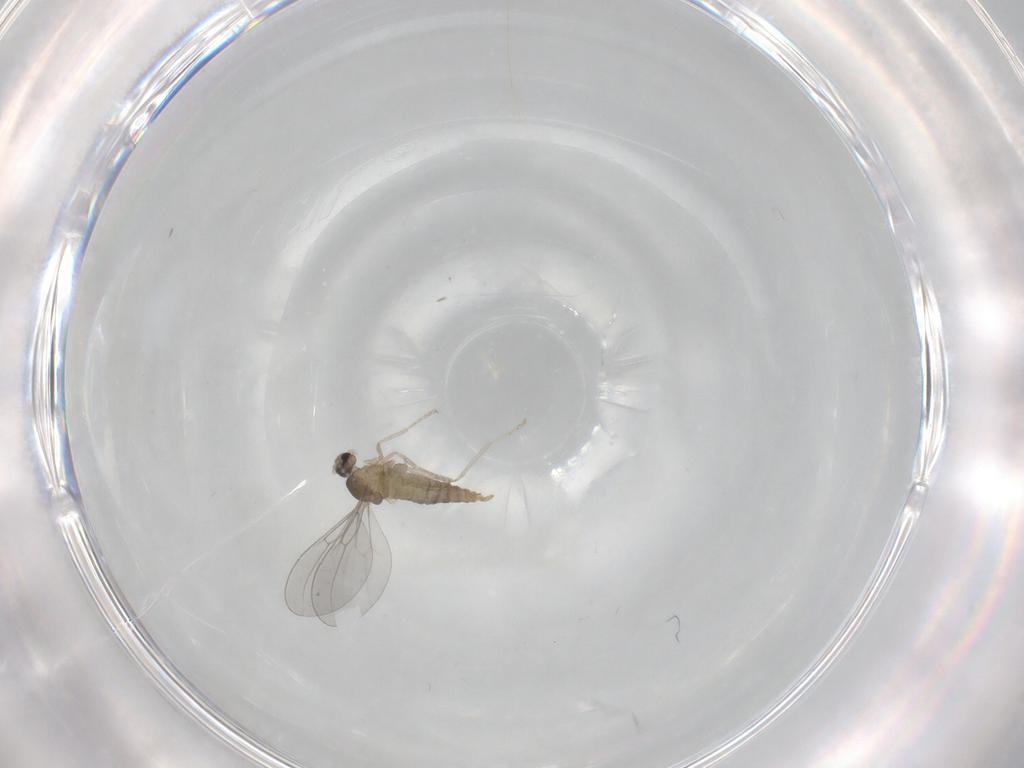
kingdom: Animalia
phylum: Arthropoda
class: Insecta
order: Diptera
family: Cecidomyiidae
